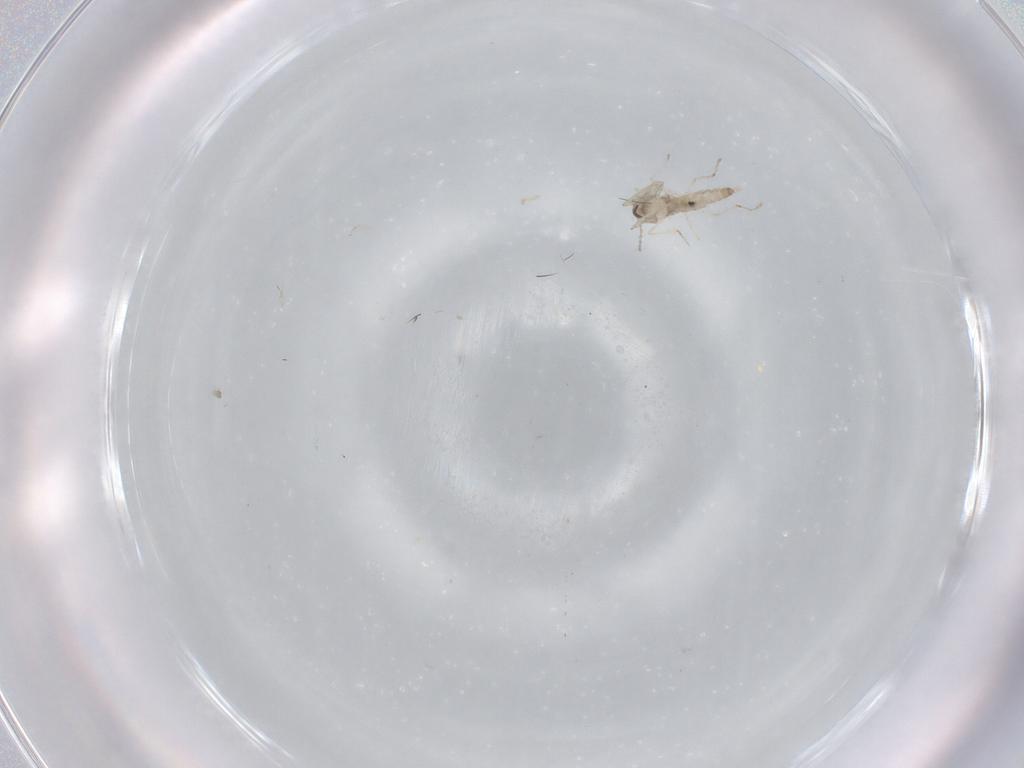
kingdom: Animalia
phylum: Arthropoda
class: Insecta
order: Diptera
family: Cecidomyiidae
